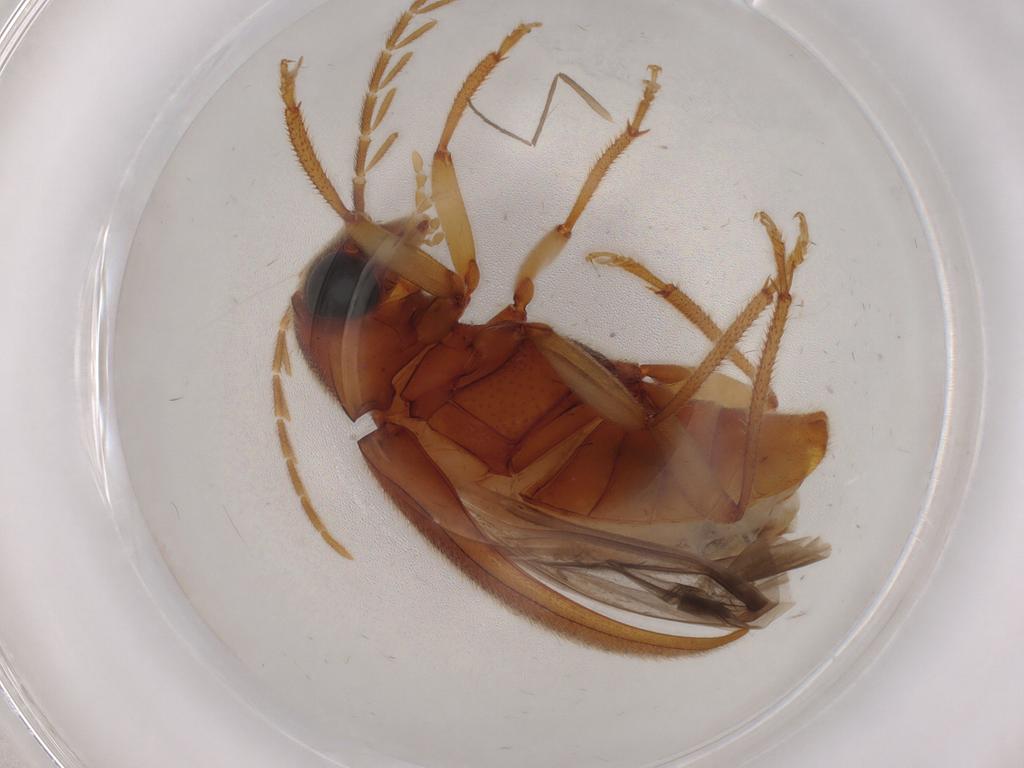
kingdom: Animalia
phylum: Arthropoda
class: Insecta
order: Coleoptera
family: Ptilodactylidae
